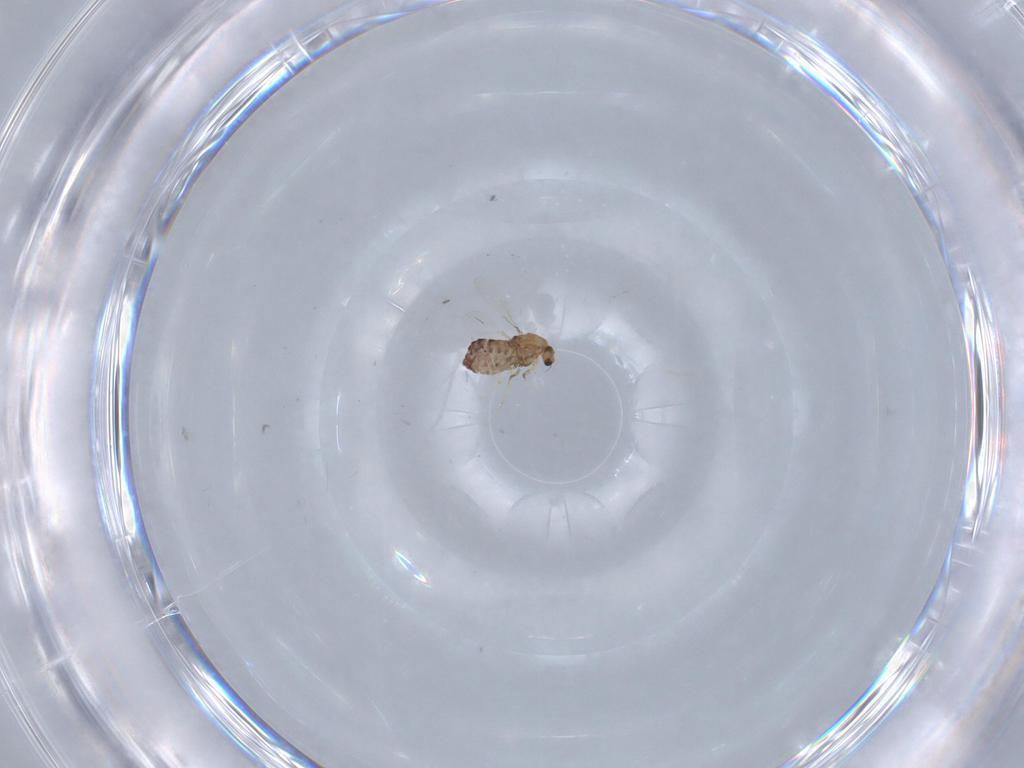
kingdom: Animalia
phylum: Arthropoda
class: Insecta
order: Diptera
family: Chironomidae
